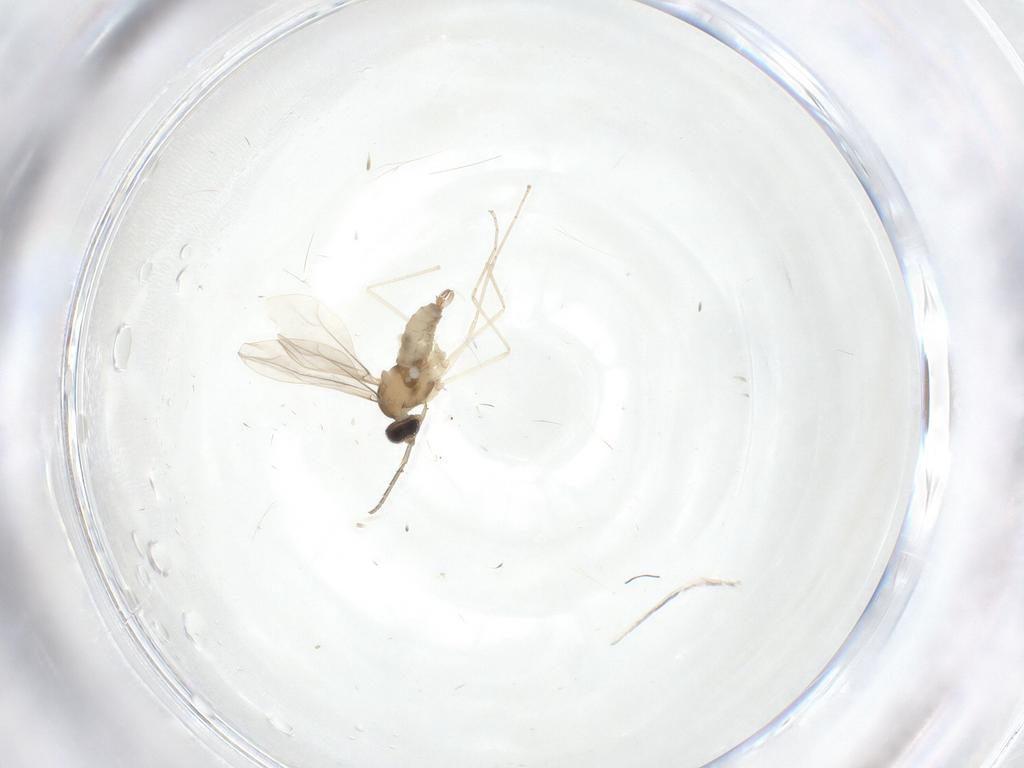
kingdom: Animalia
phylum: Arthropoda
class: Insecta
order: Diptera
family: Cecidomyiidae
